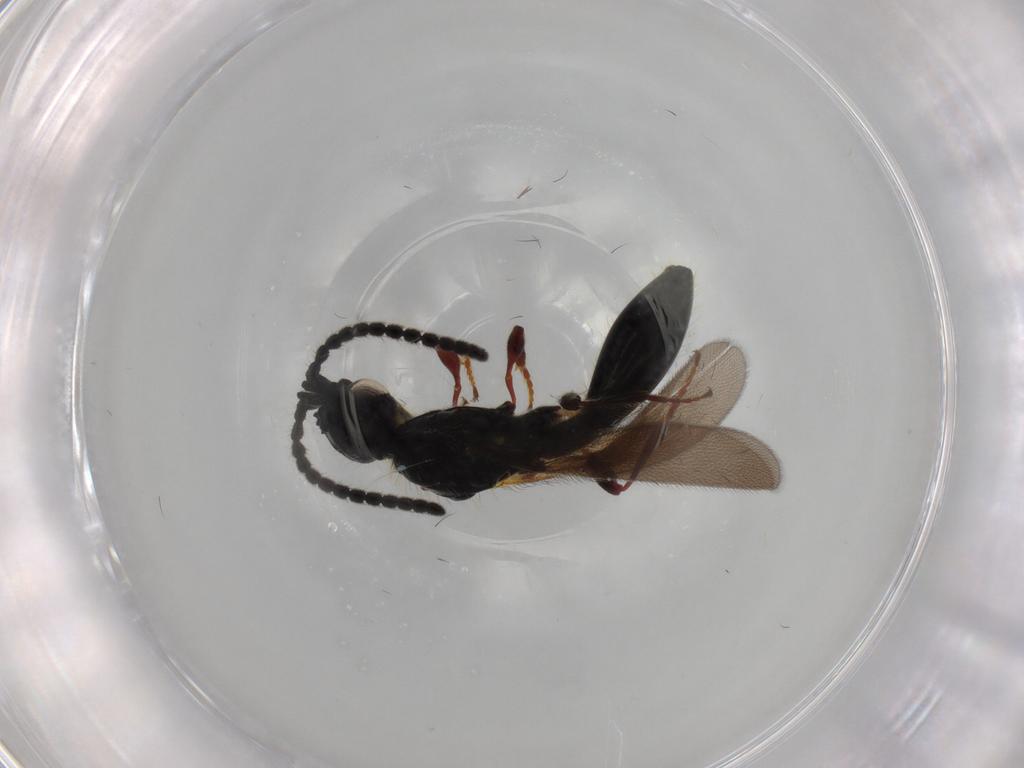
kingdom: Animalia
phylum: Arthropoda
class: Insecta
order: Hymenoptera
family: Diapriidae
